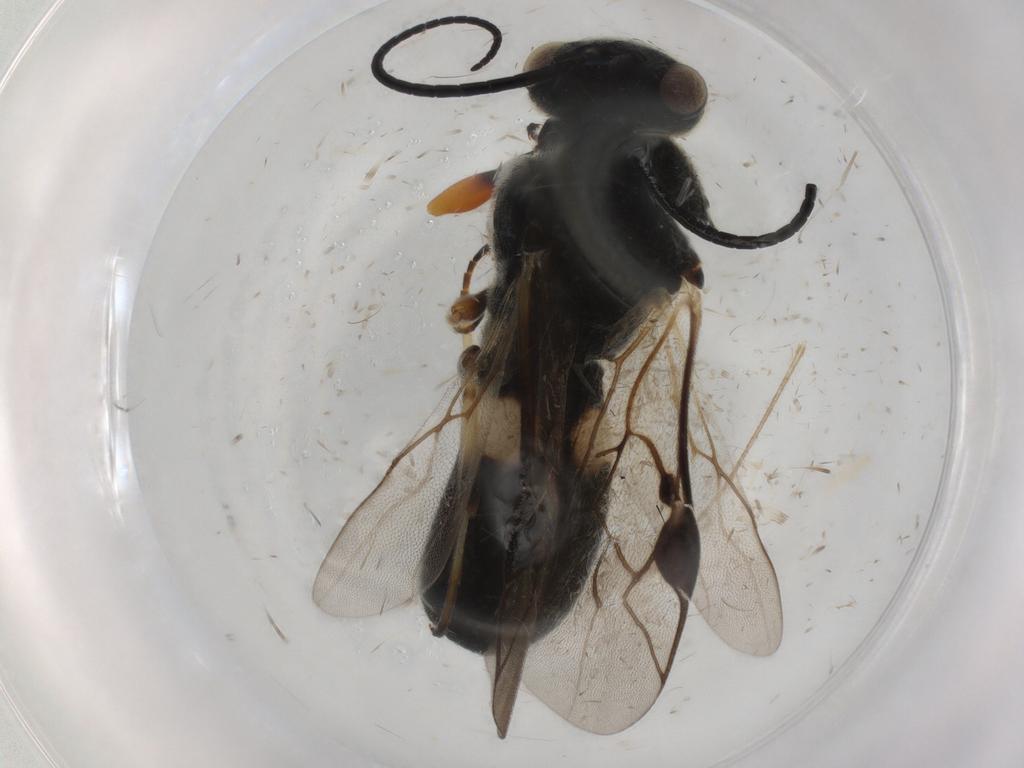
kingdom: Animalia
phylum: Arthropoda
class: Insecta
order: Hymenoptera
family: Braconidae
